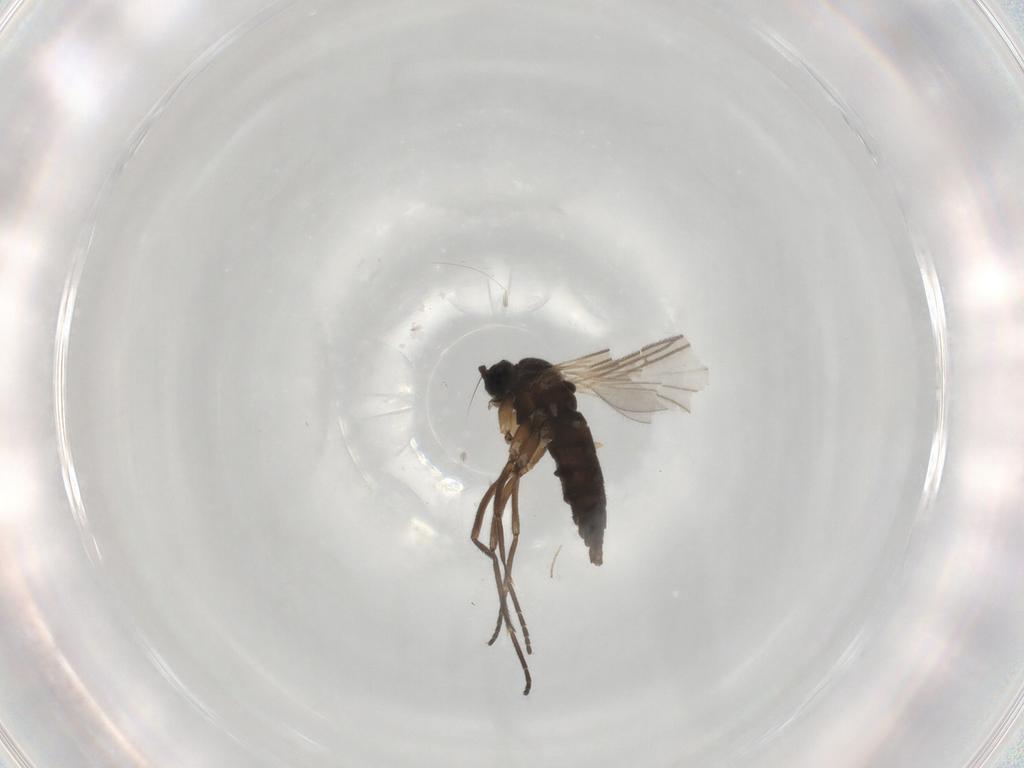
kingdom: Animalia
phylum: Arthropoda
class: Insecta
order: Diptera
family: Sciaridae
